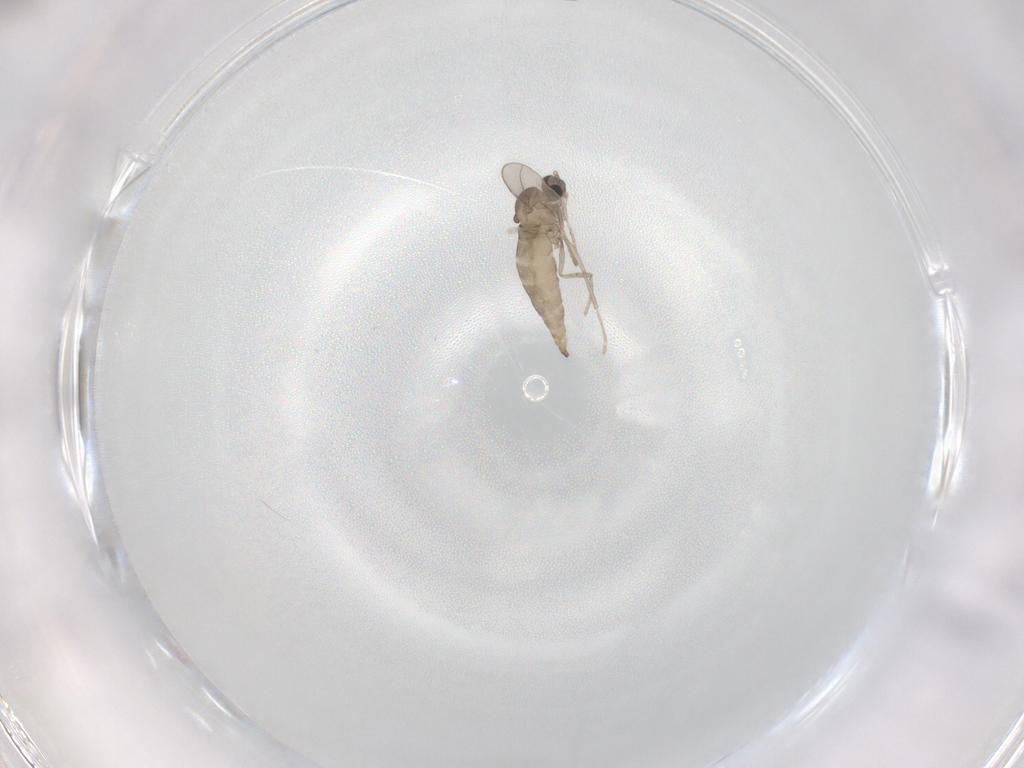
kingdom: Animalia
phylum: Arthropoda
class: Insecta
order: Diptera
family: Cecidomyiidae
